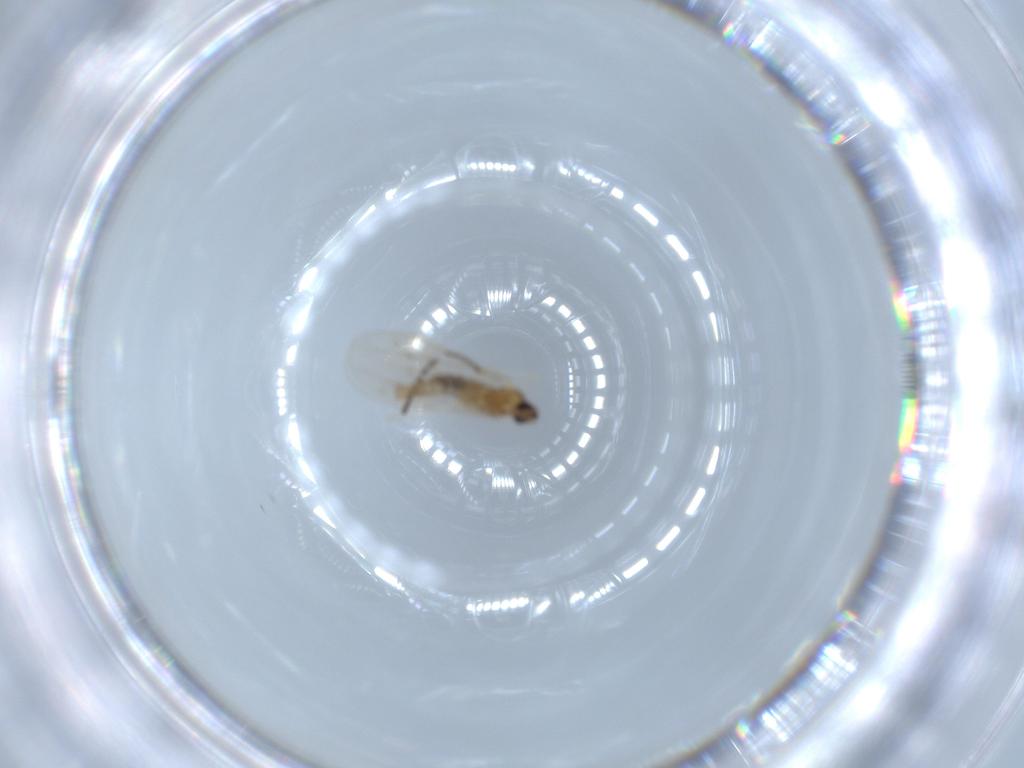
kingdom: Animalia
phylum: Arthropoda
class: Insecta
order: Diptera
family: Cecidomyiidae
